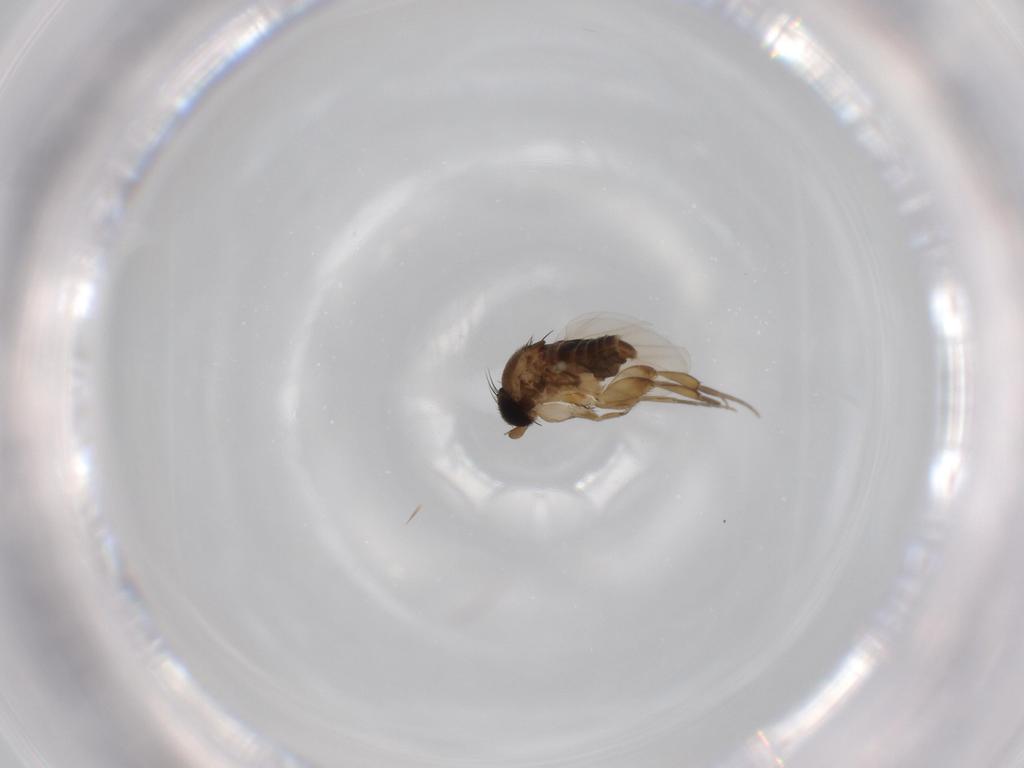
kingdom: Animalia
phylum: Arthropoda
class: Insecta
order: Diptera
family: Phoridae
